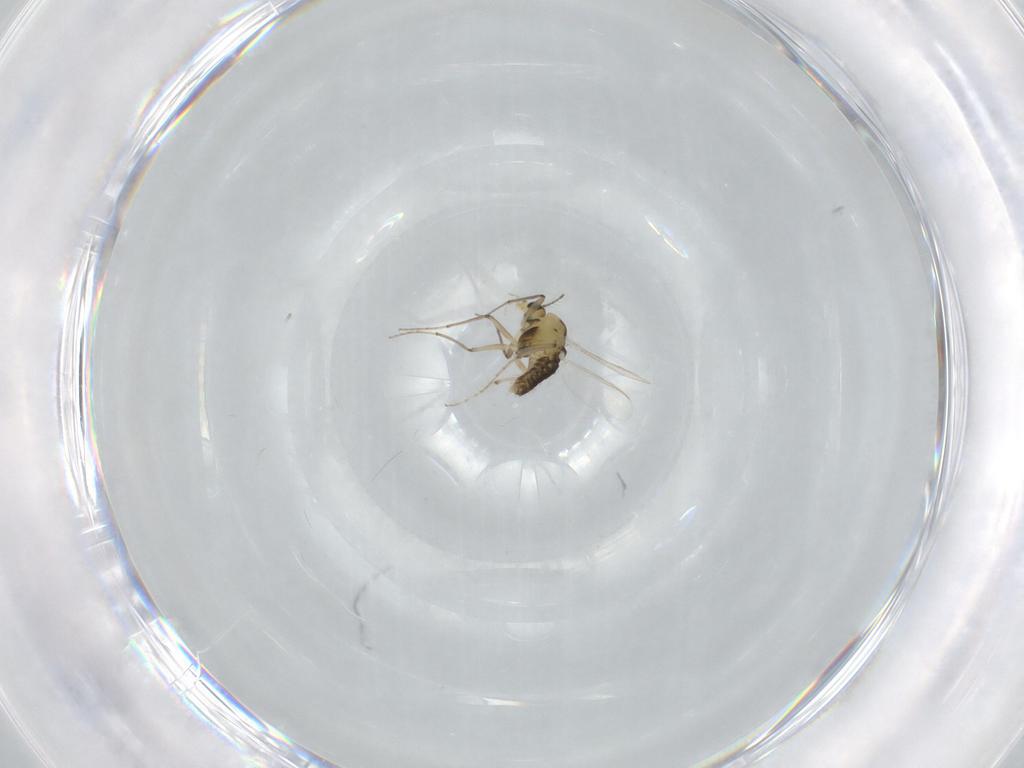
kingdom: Animalia
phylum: Arthropoda
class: Insecta
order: Diptera
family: Chironomidae
